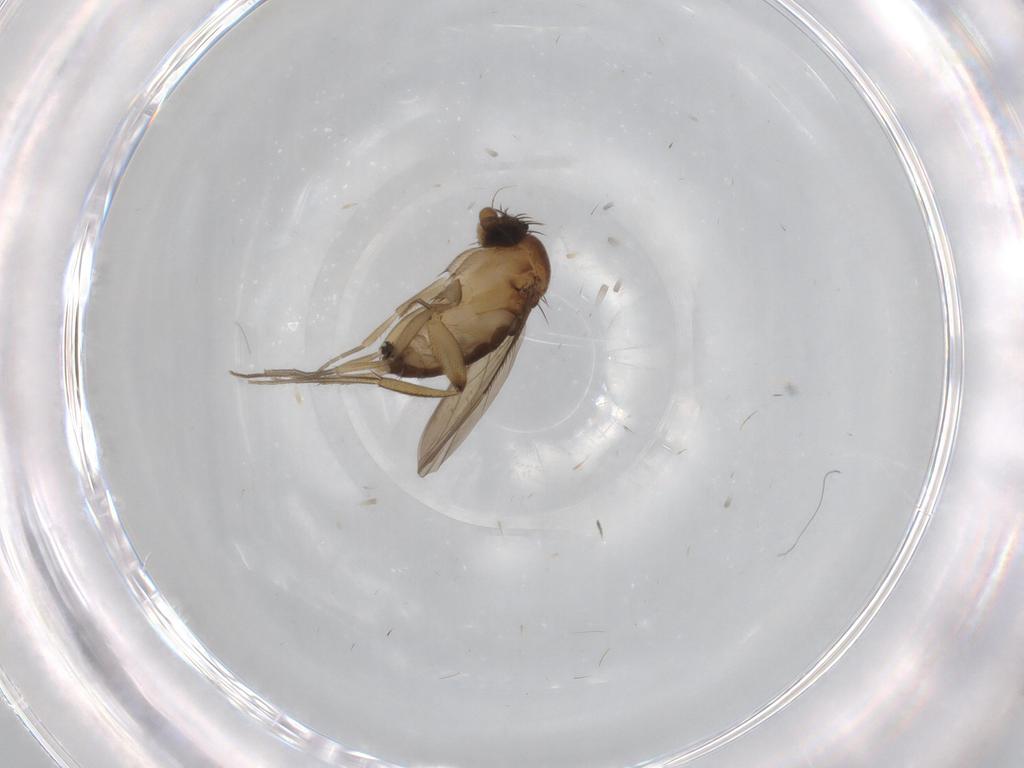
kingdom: Animalia
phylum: Arthropoda
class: Insecta
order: Diptera
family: Phoridae
